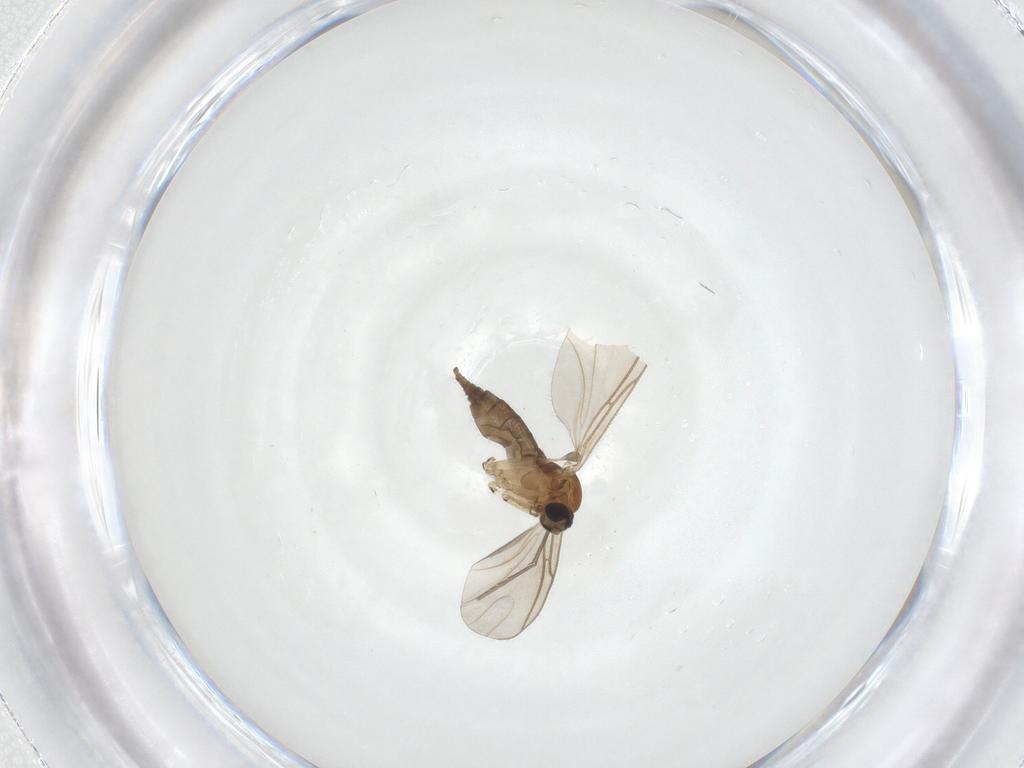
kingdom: Animalia
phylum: Arthropoda
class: Insecta
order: Diptera
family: Sciaridae
